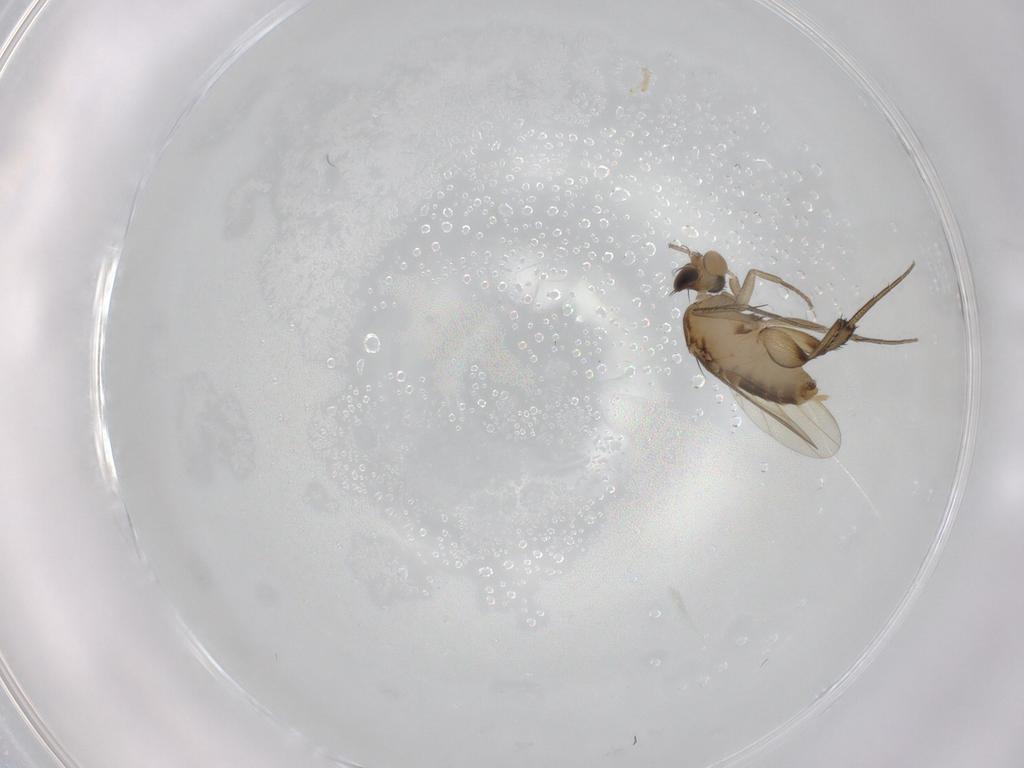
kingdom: Animalia
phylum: Arthropoda
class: Insecta
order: Diptera
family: Phoridae
